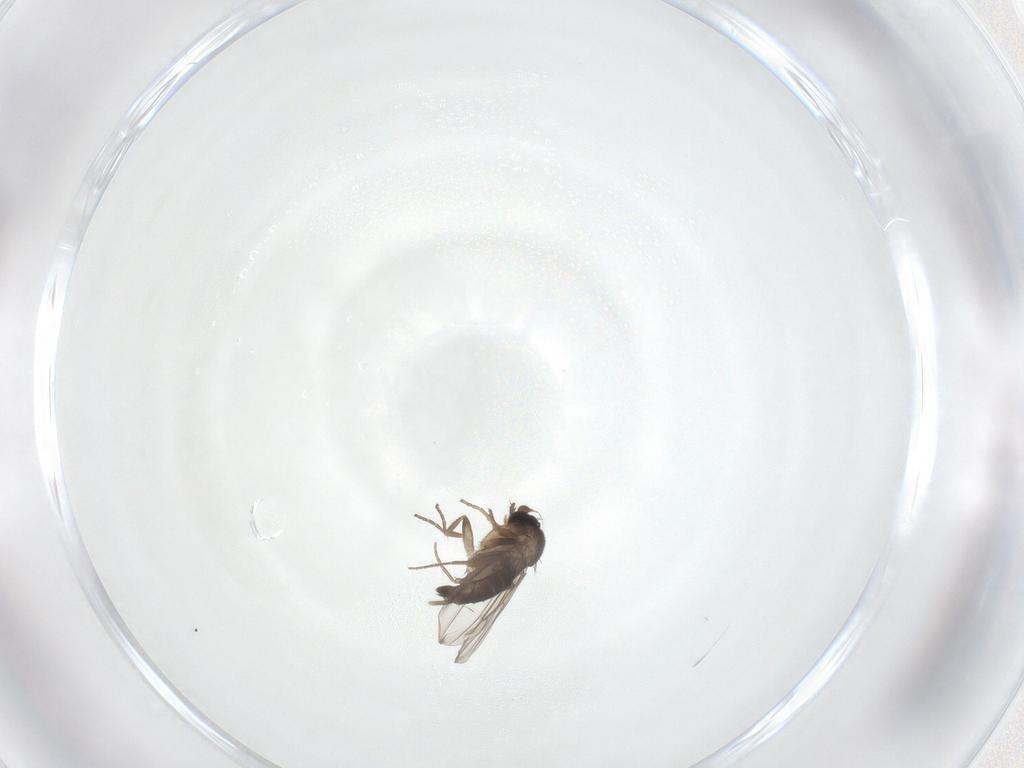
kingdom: Animalia
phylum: Arthropoda
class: Insecta
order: Diptera
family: Phoridae
